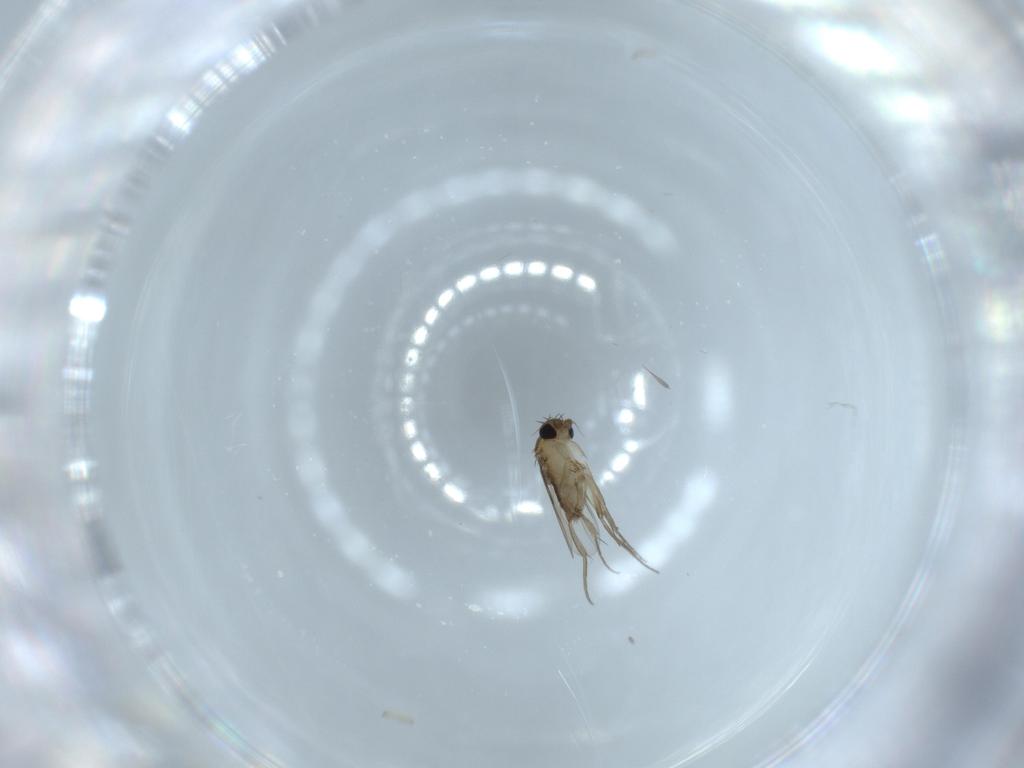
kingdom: Animalia
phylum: Arthropoda
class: Insecta
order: Diptera
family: Phoridae
